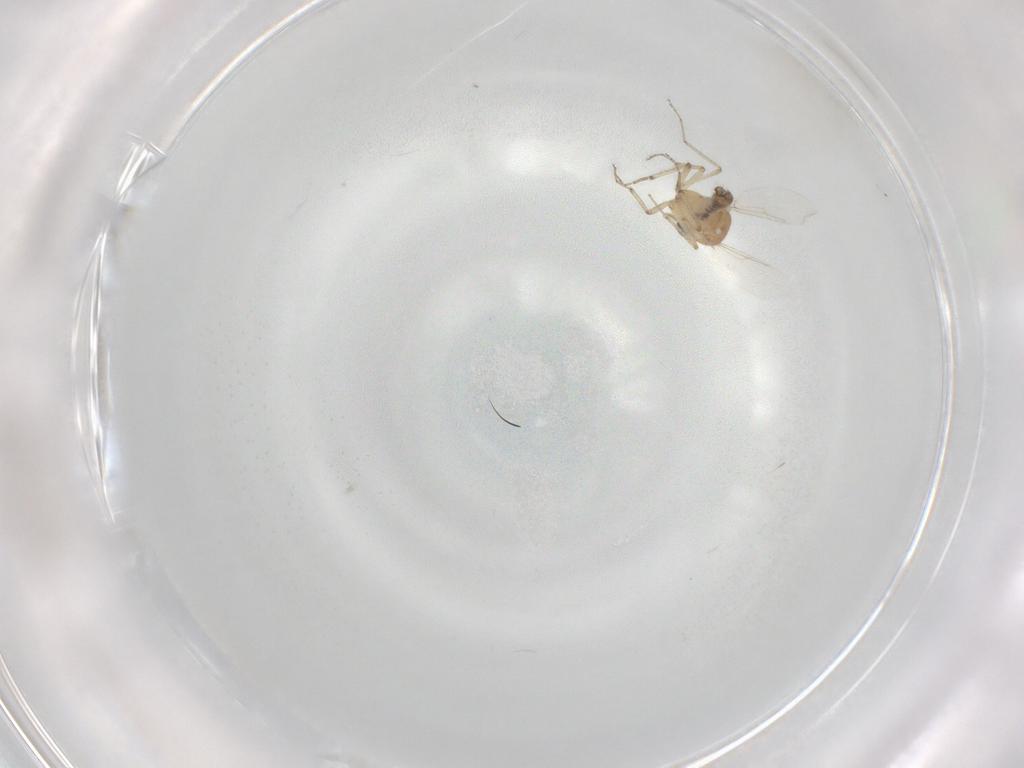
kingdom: Animalia
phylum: Arthropoda
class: Insecta
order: Diptera
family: Ceratopogonidae
